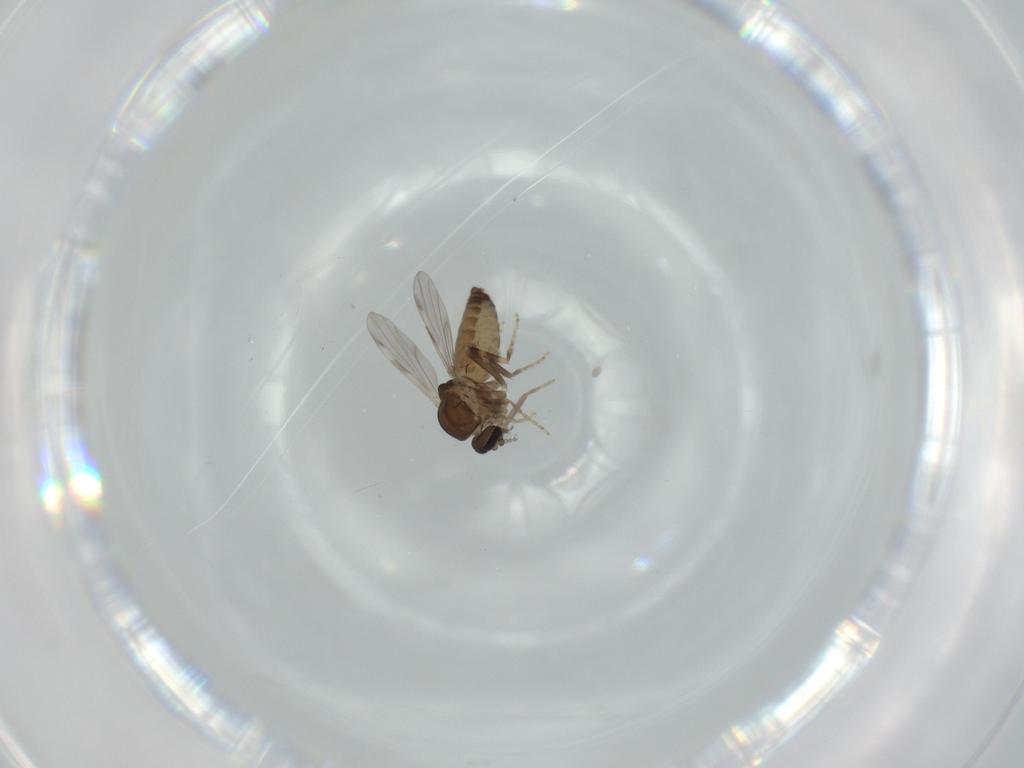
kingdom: Animalia
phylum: Arthropoda
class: Insecta
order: Diptera
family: Ceratopogonidae
